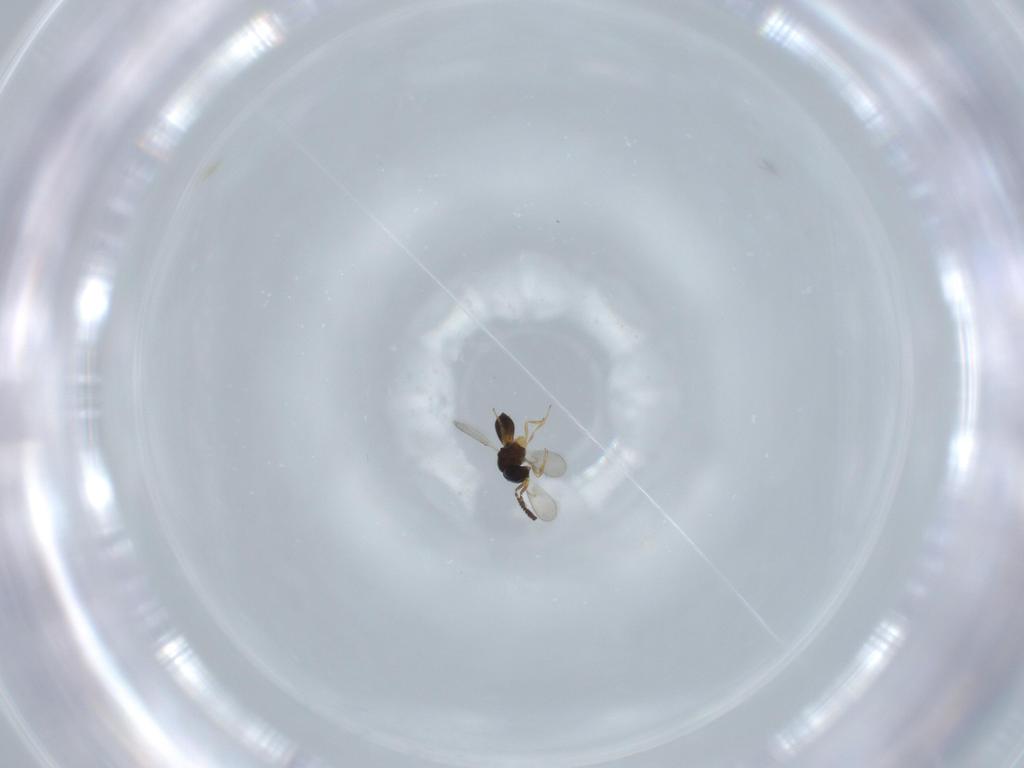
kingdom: Animalia
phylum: Arthropoda
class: Insecta
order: Hymenoptera
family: Scelionidae
